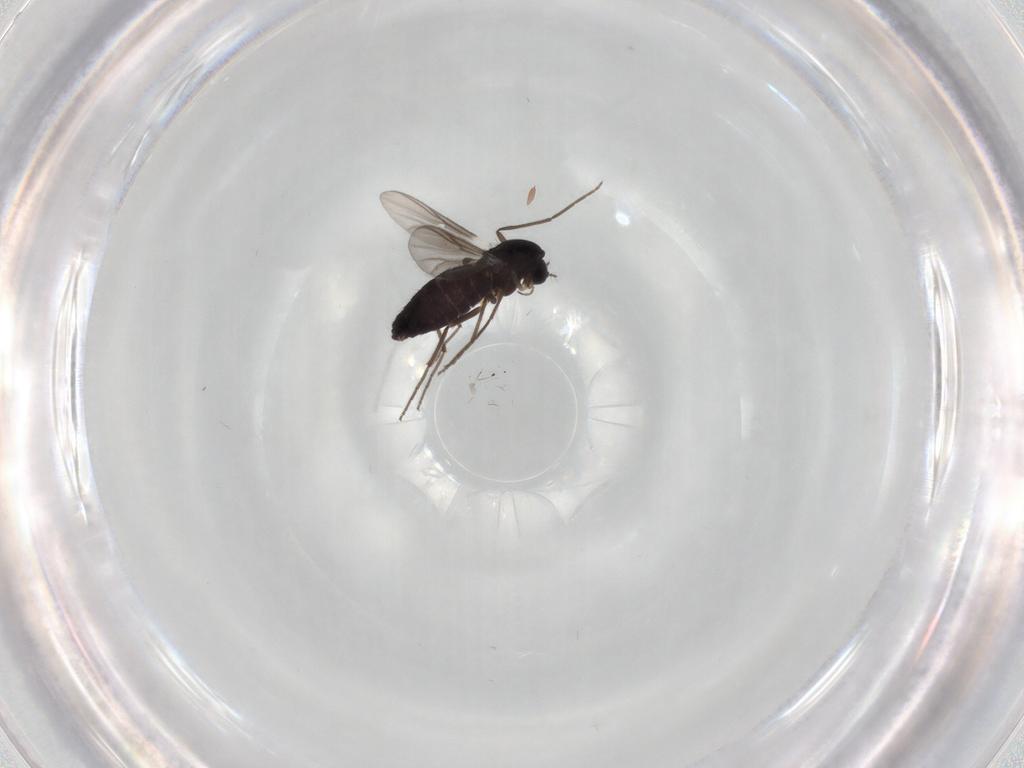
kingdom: Animalia
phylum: Arthropoda
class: Insecta
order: Diptera
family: Chironomidae
